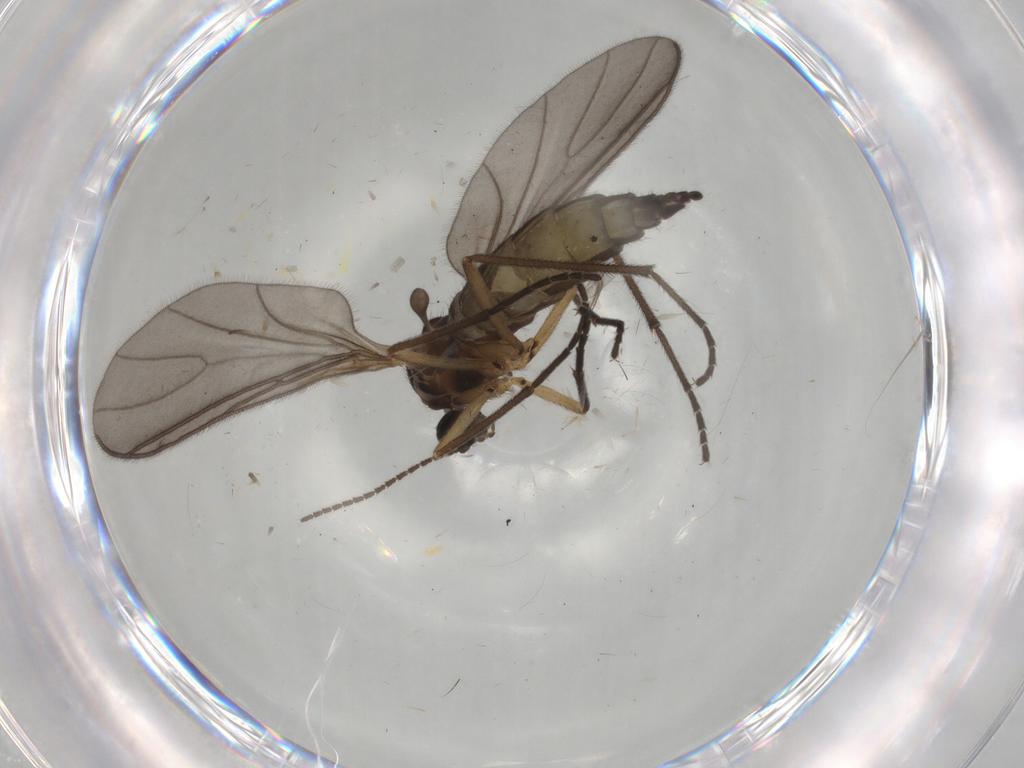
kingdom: Animalia
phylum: Arthropoda
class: Insecta
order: Diptera
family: Sciaridae
